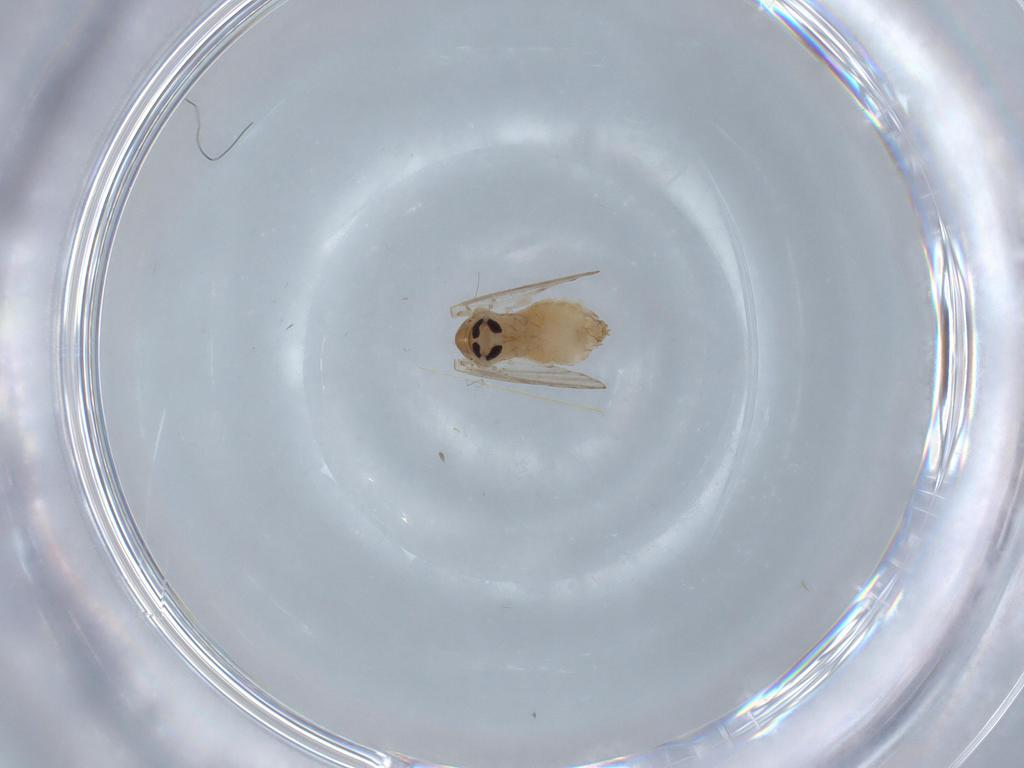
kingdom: Animalia
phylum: Arthropoda
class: Insecta
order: Diptera
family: Psychodidae
